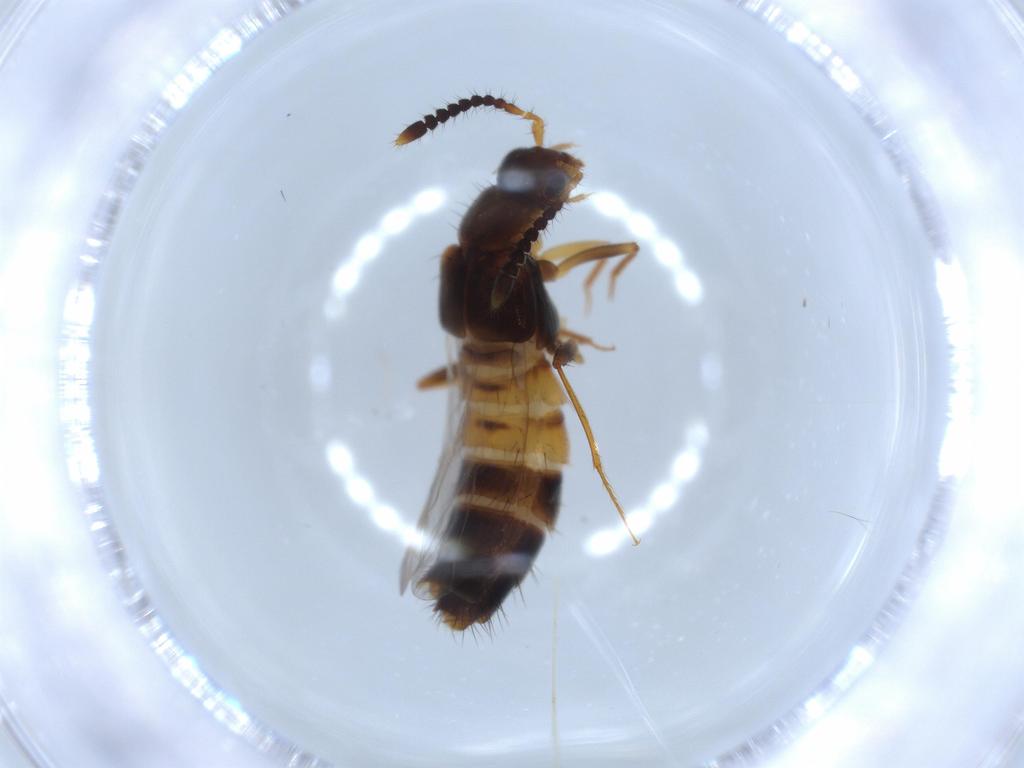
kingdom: Animalia
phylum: Arthropoda
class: Insecta
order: Coleoptera
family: Staphylinidae
